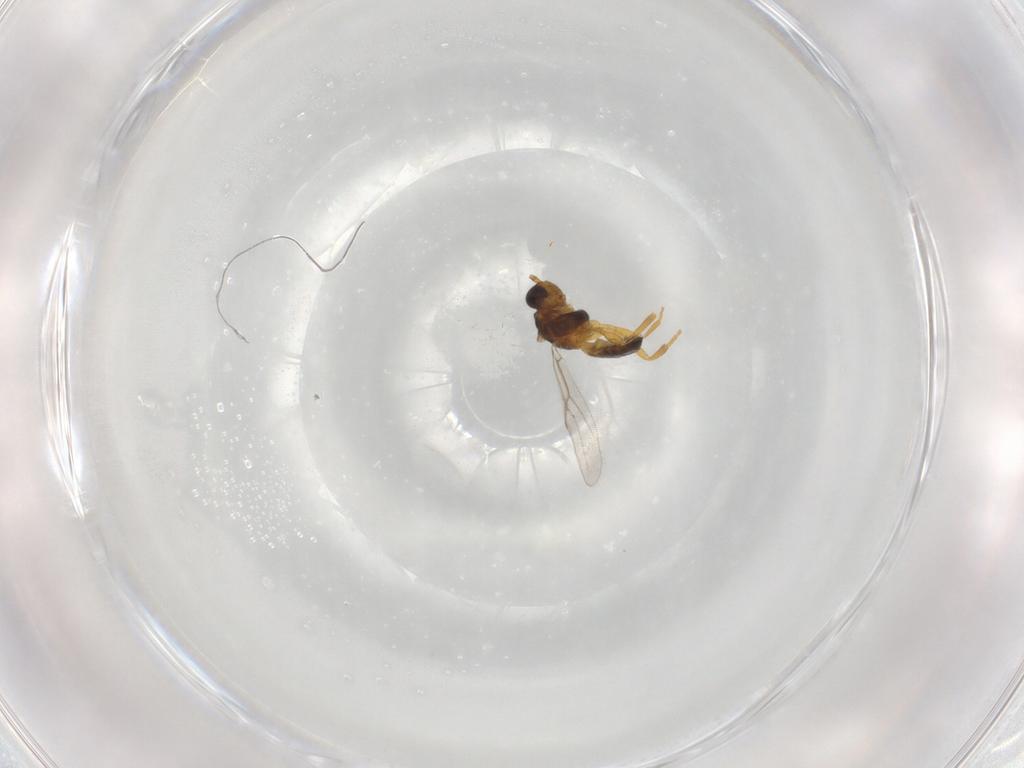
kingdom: Animalia
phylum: Arthropoda
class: Insecta
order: Hymenoptera
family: Braconidae
